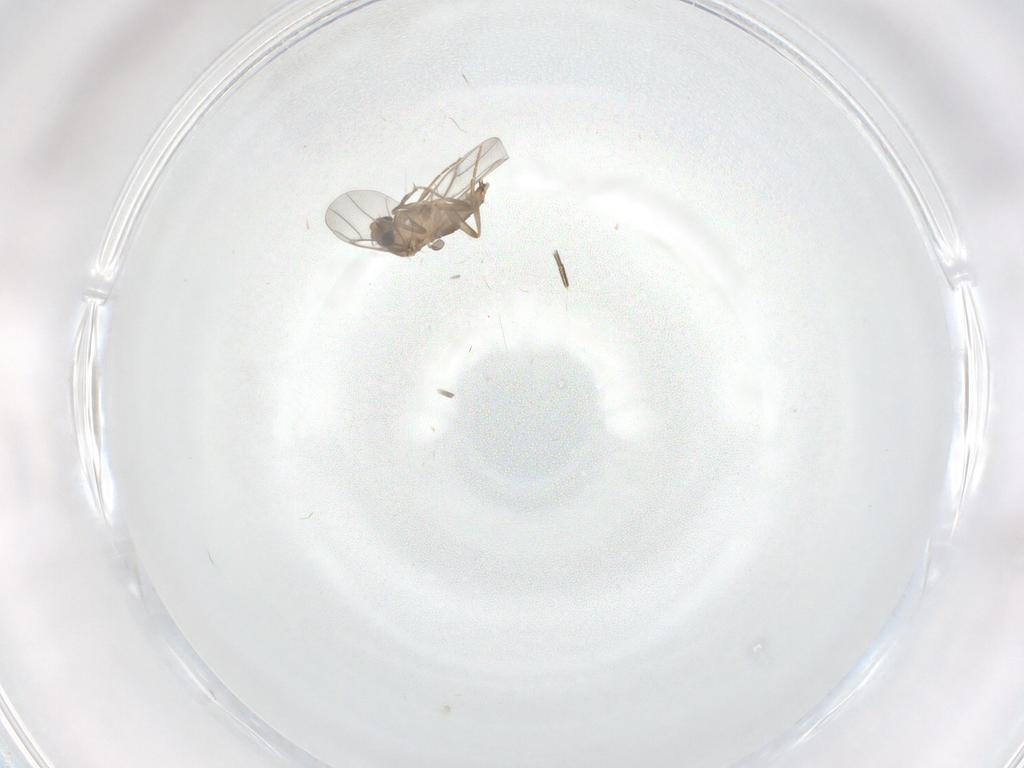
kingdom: Animalia
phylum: Arthropoda
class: Insecta
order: Diptera
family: Phoridae
